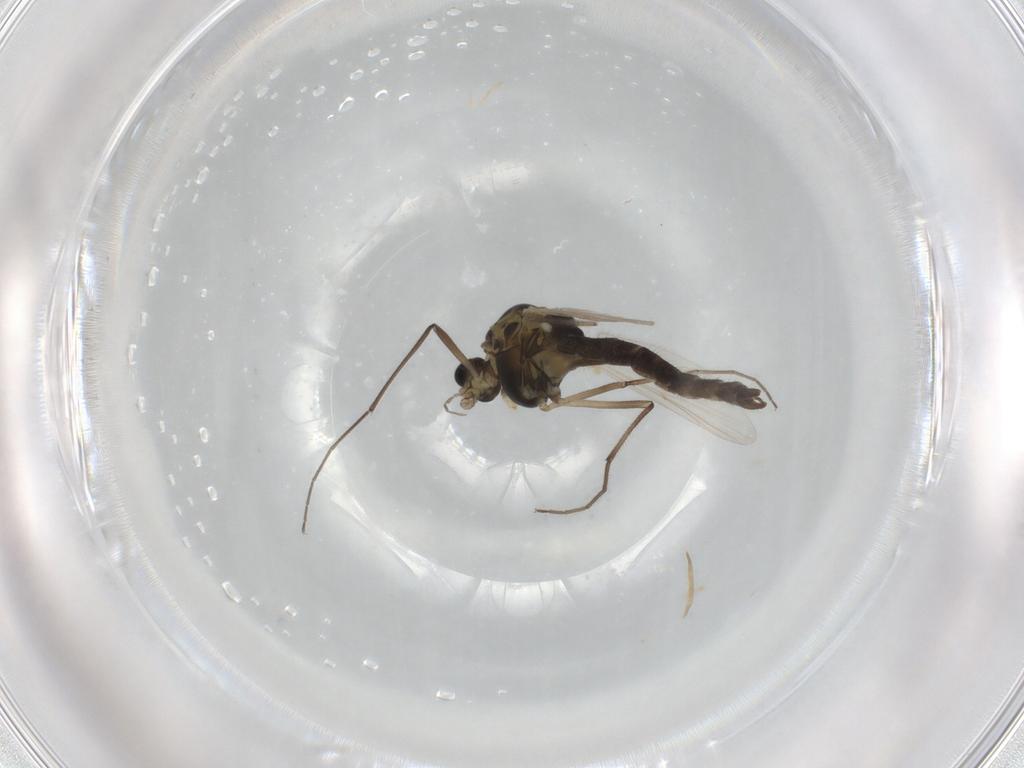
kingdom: Animalia
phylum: Arthropoda
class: Insecta
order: Diptera
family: Chironomidae
